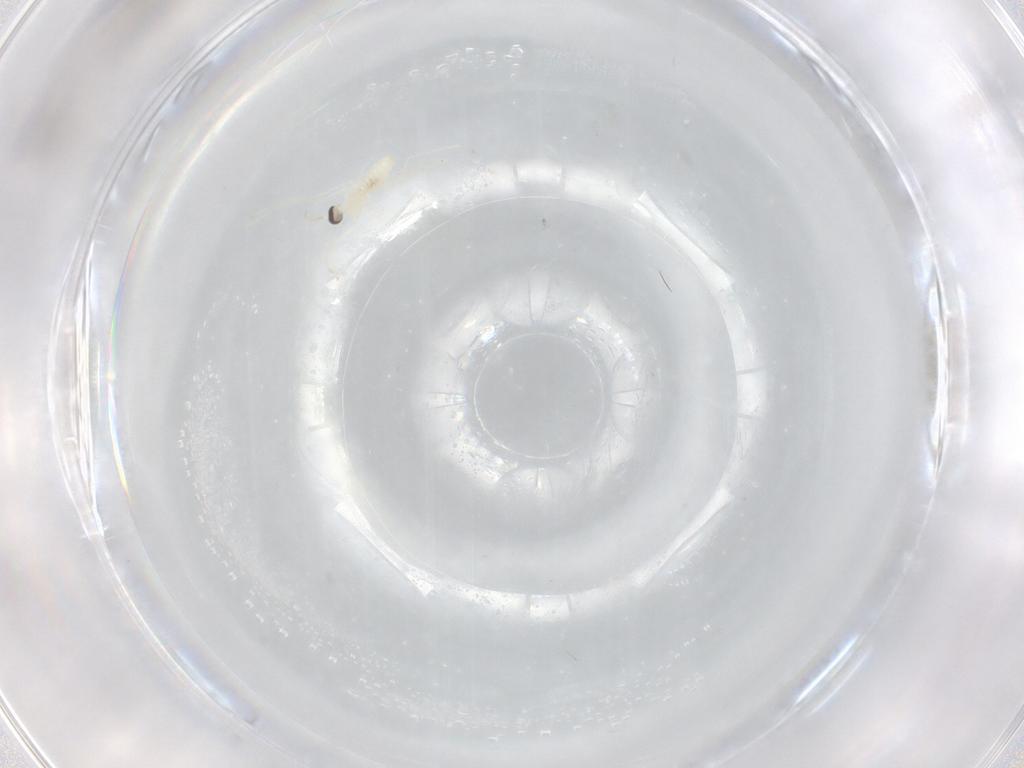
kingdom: Animalia
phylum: Arthropoda
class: Insecta
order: Diptera
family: Cecidomyiidae
